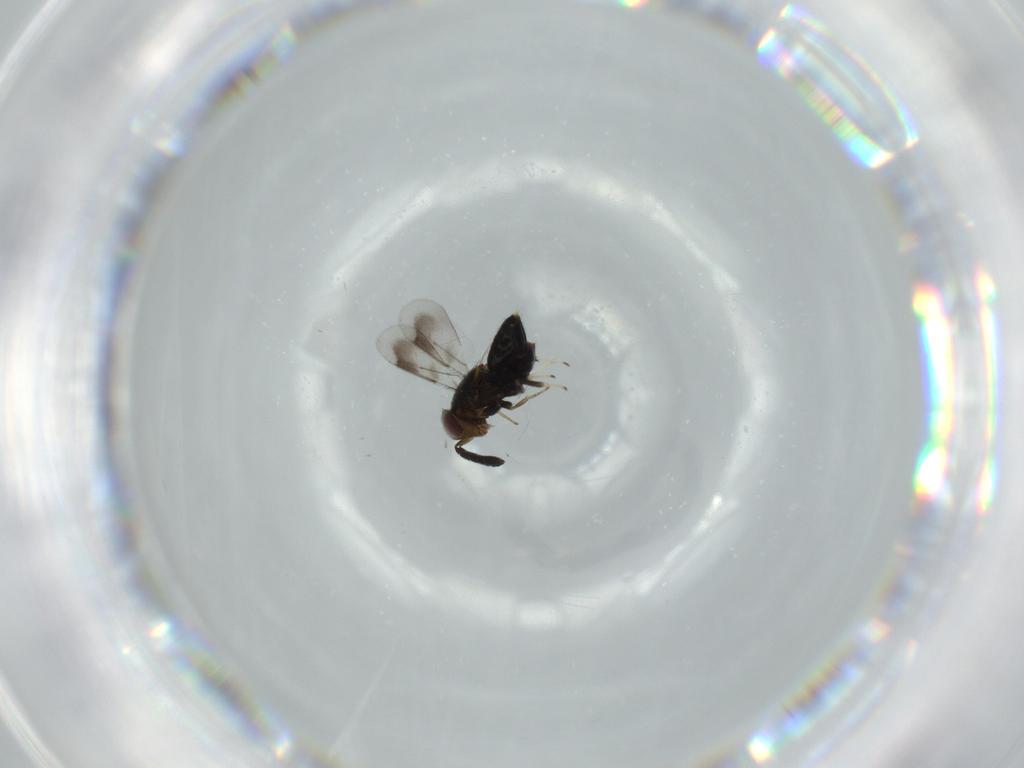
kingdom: Animalia
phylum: Arthropoda
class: Insecta
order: Hymenoptera
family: Aphelinidae
